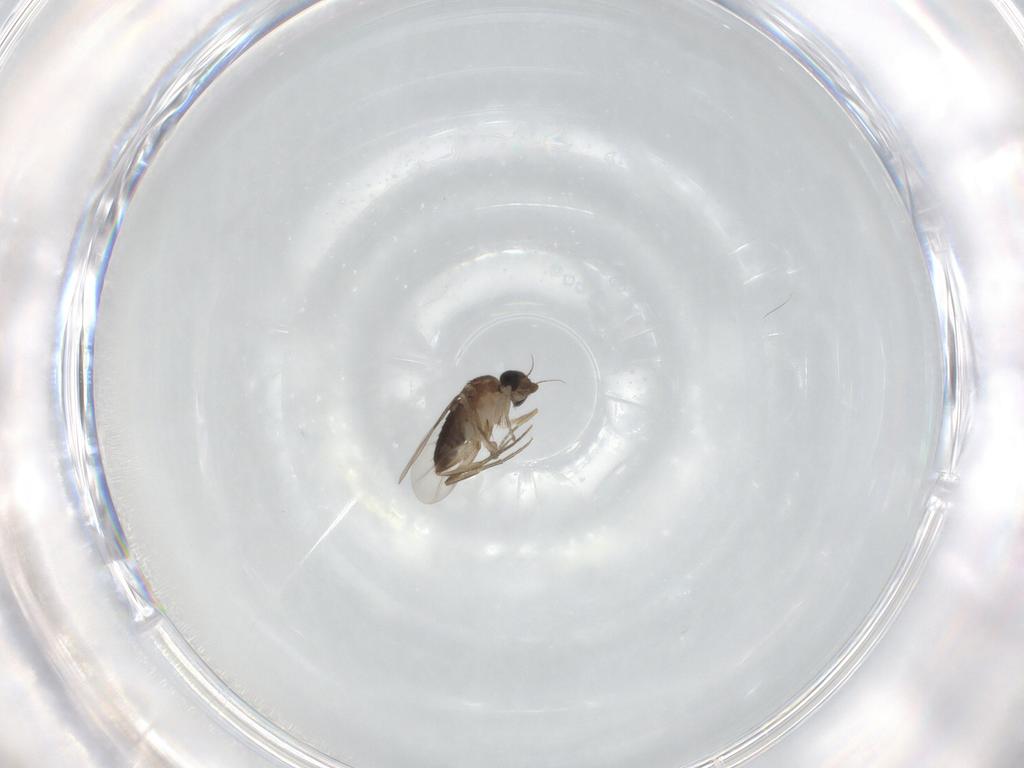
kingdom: Animalia
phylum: Arthropoda
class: Insecta
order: Diptera
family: Phoridae
